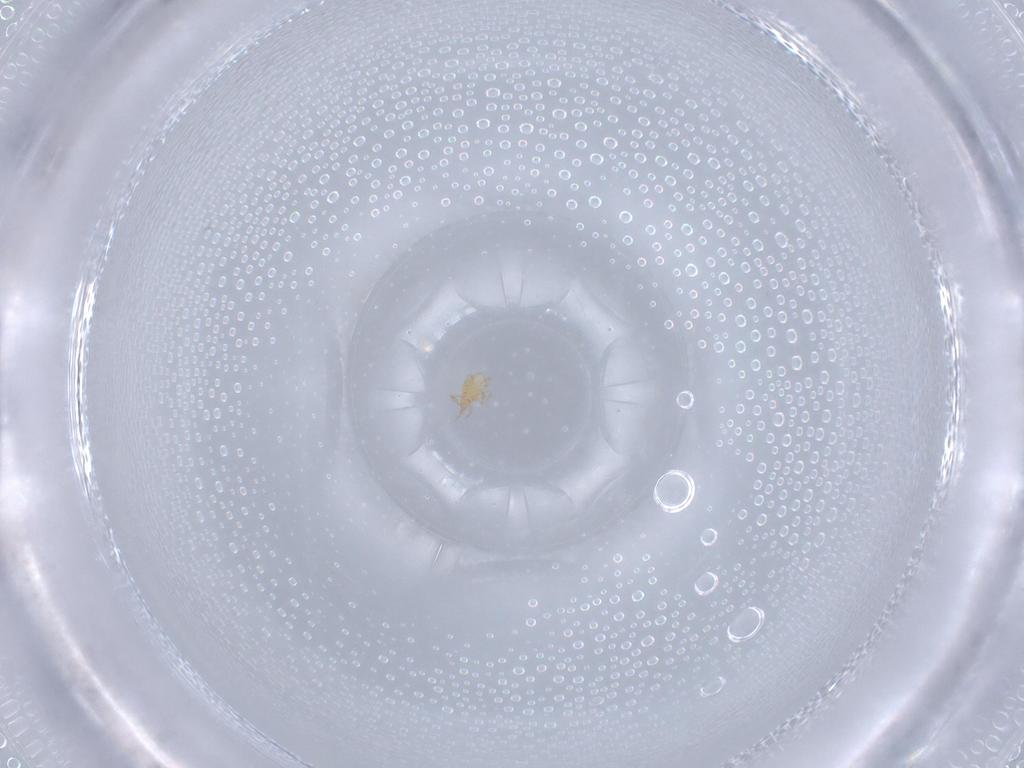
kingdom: Animalia
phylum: Arthropoda
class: Arachnida
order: Trombidiformes
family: Cunaxidae
